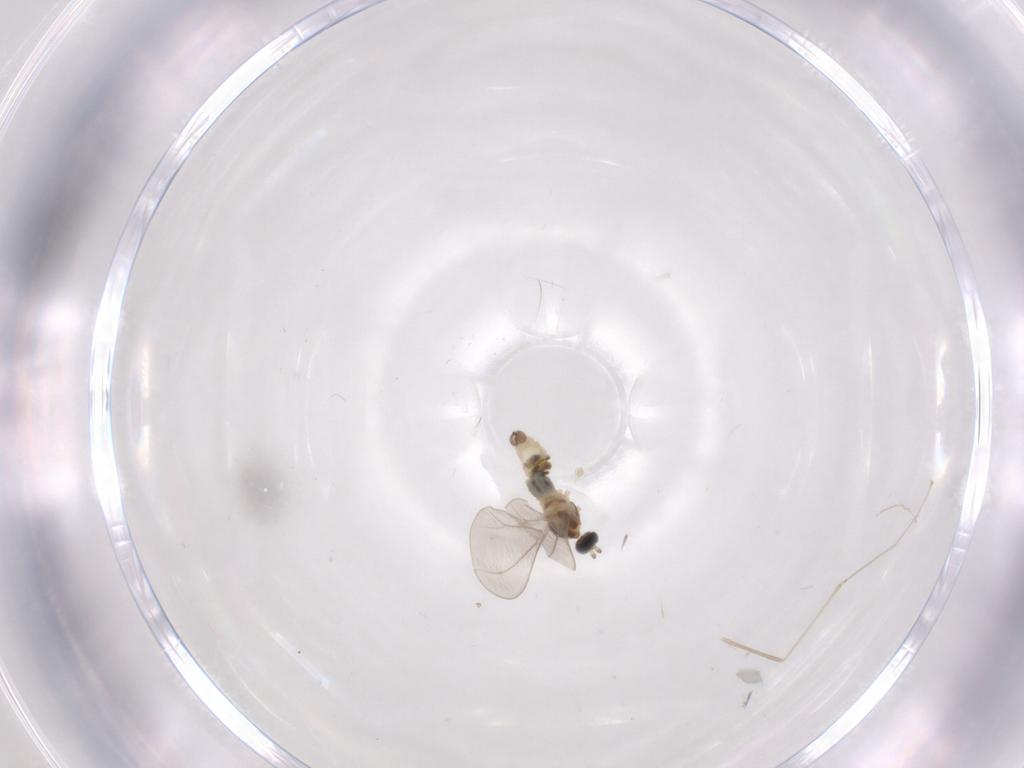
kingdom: Animalia
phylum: Arthropoda
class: Insecta
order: Diptera
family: Cecidomyiidae
